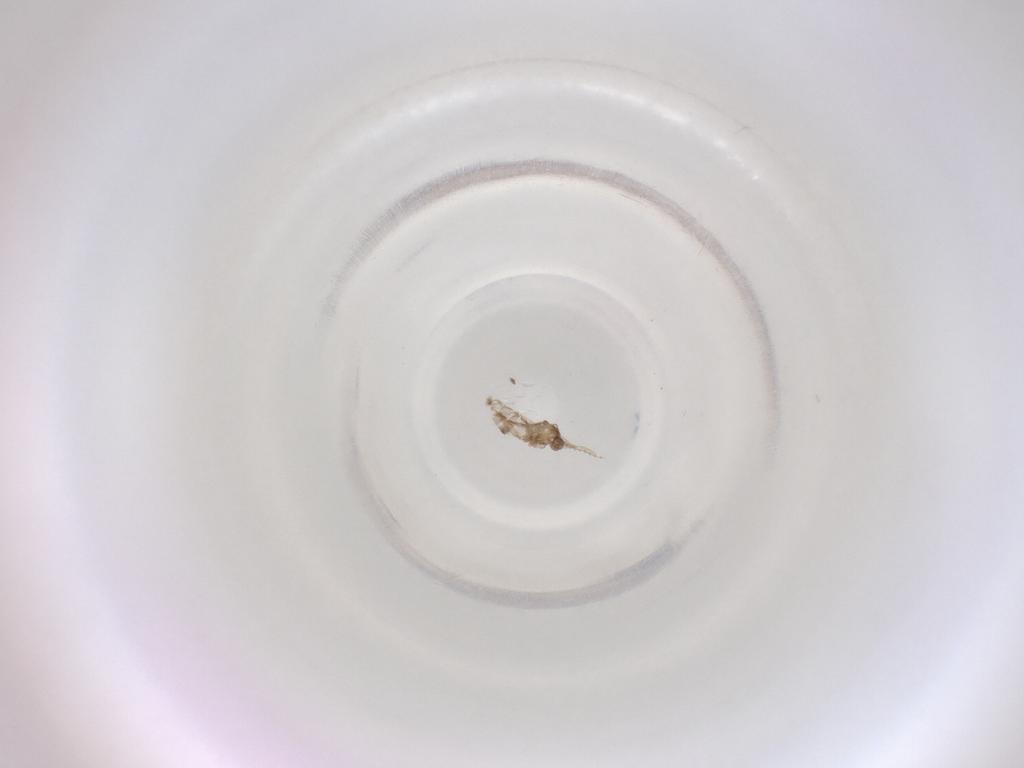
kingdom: Animalia
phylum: Arthropoda
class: Insecta
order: Diptera
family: Cecidomyiidae
